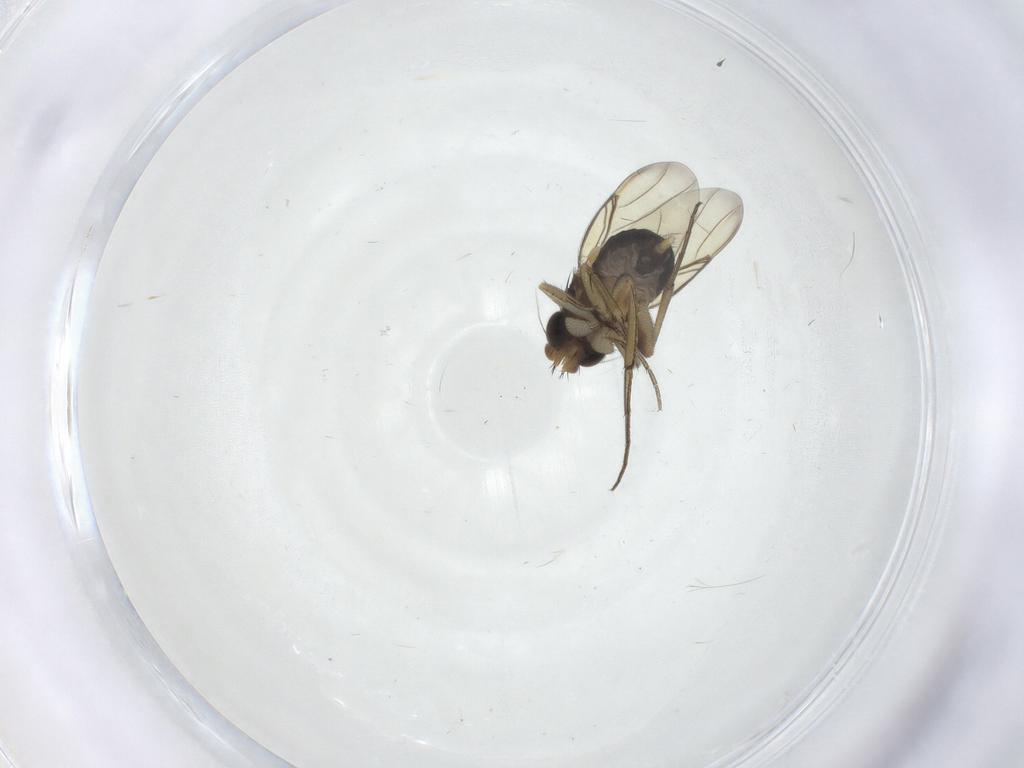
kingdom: Animalia
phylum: Arthropoda
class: Insecta
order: Diptera
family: Phoridae
